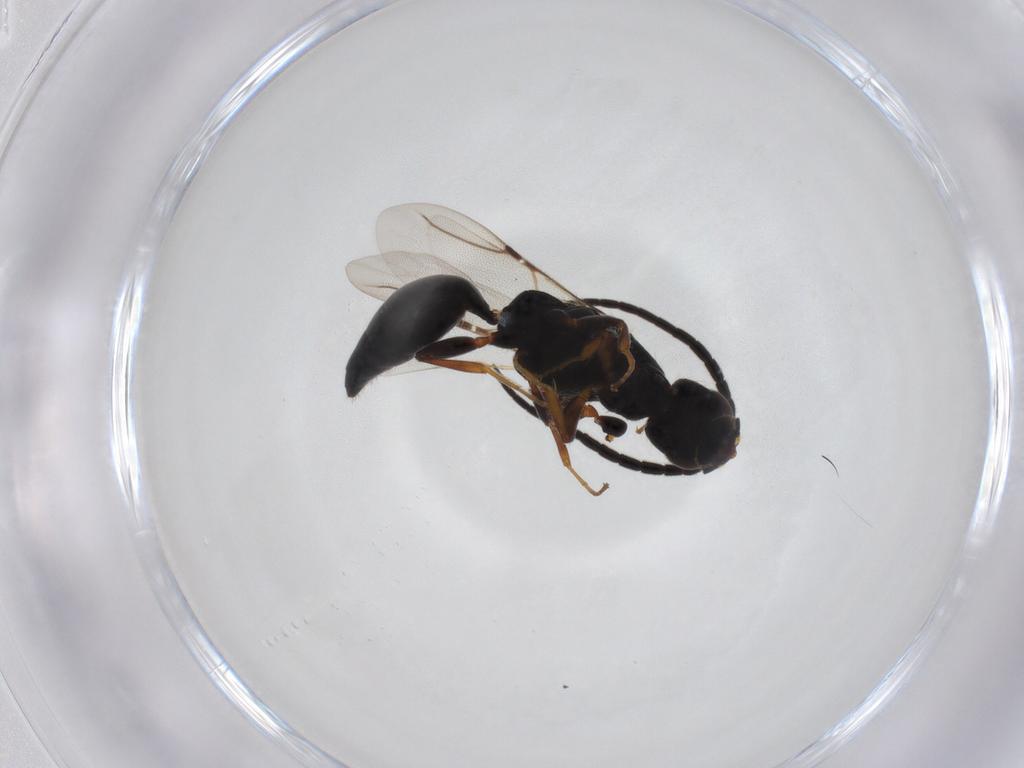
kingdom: Animalia
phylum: Arthropoda
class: Insecta
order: Hymenoptera
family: Bethylidae
